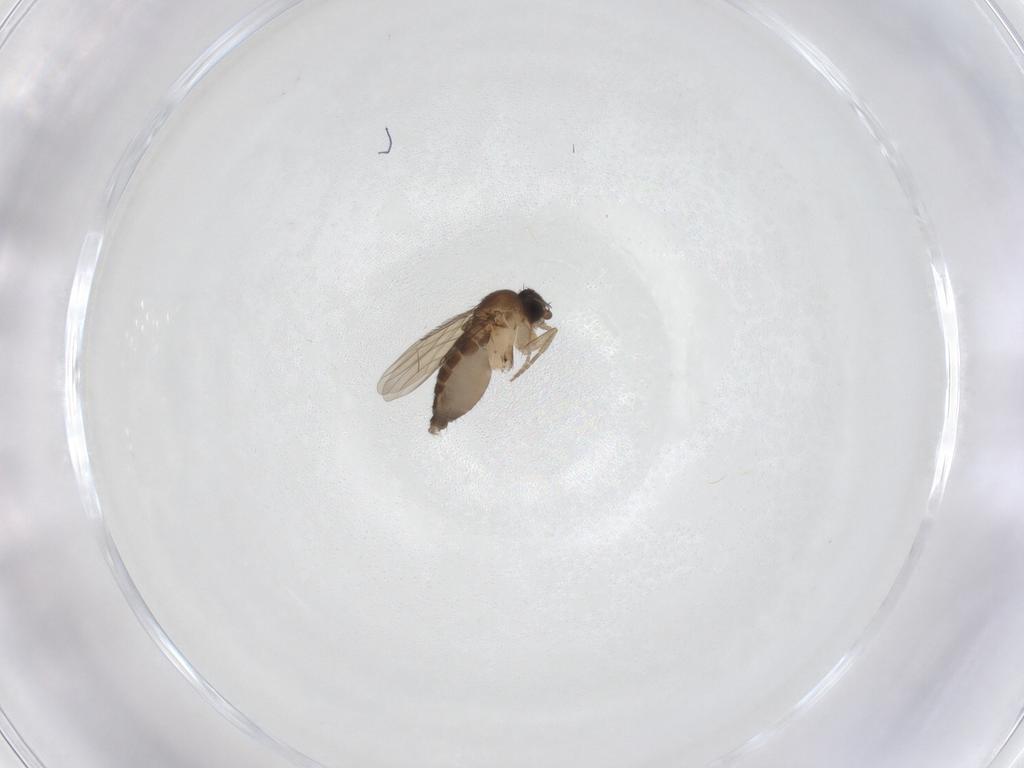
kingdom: Animalia
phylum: Arthropoda
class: Insecta
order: Diptera
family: Phoridae
